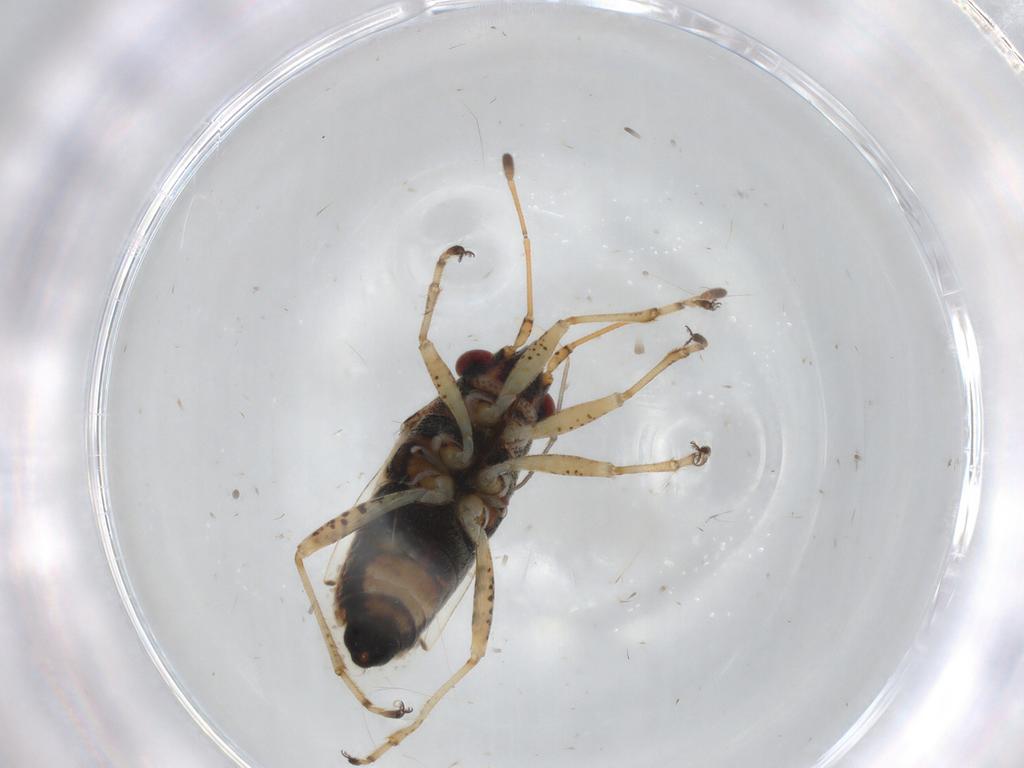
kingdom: Animalia
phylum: Arthropoda
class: Insecta
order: Hemiptera
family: Lygaeidae
